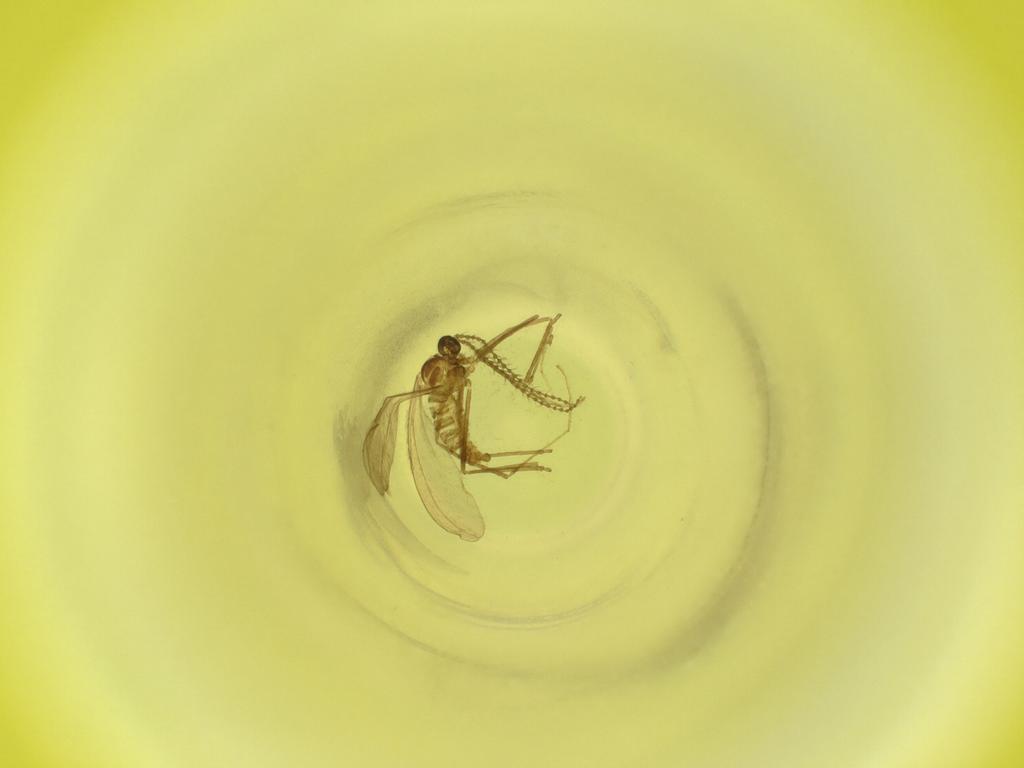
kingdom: Animalia
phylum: Arthropoda
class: Insecta
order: Diptera
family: Cecidomyiidae
